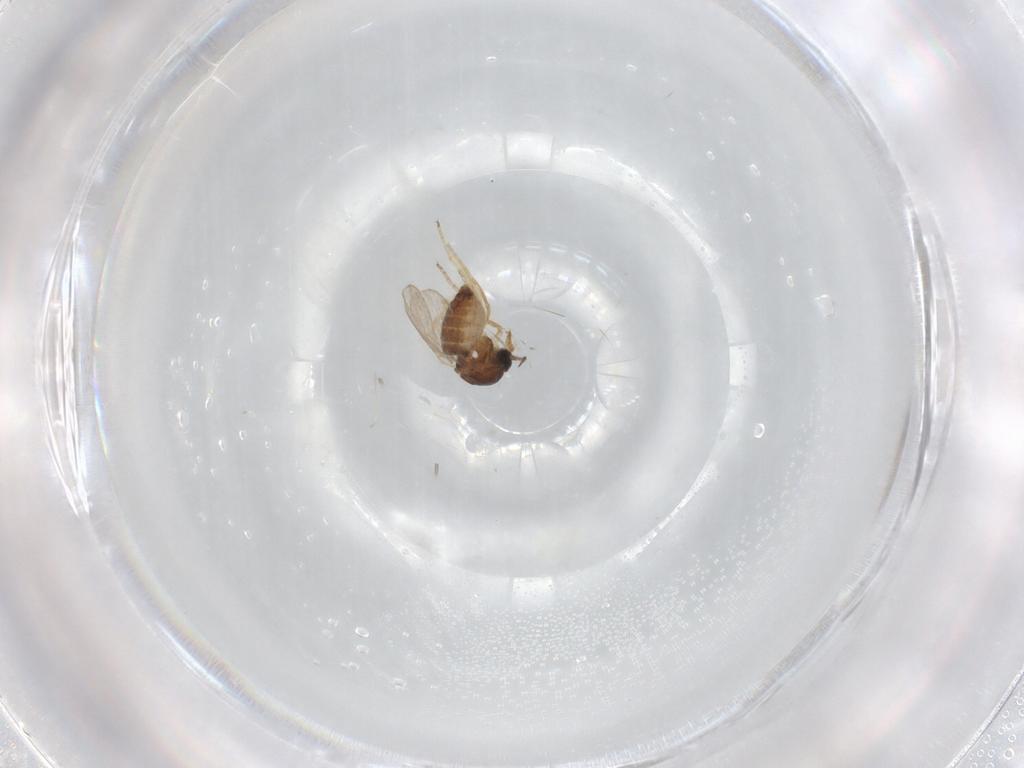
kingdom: Animalia
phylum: Arthropoda
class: Insecta
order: Diptera
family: Ceratopogonidae
